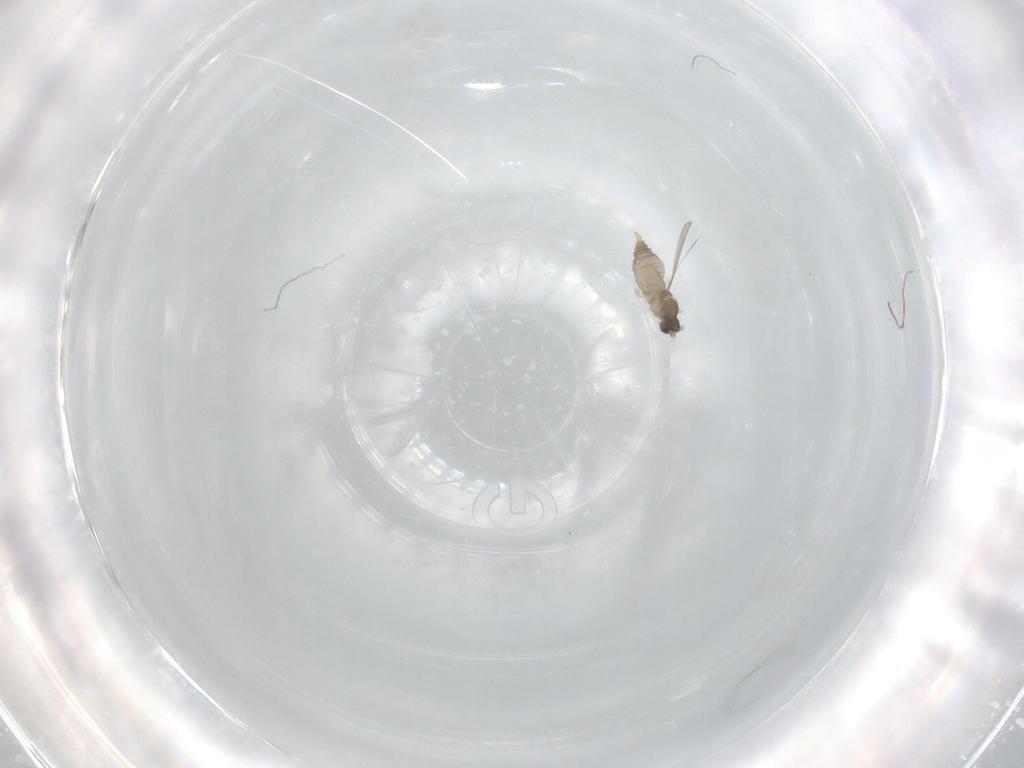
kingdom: Animalia
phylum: Arthropoda
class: Insecta
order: Diptera
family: Cecidomyiidae
